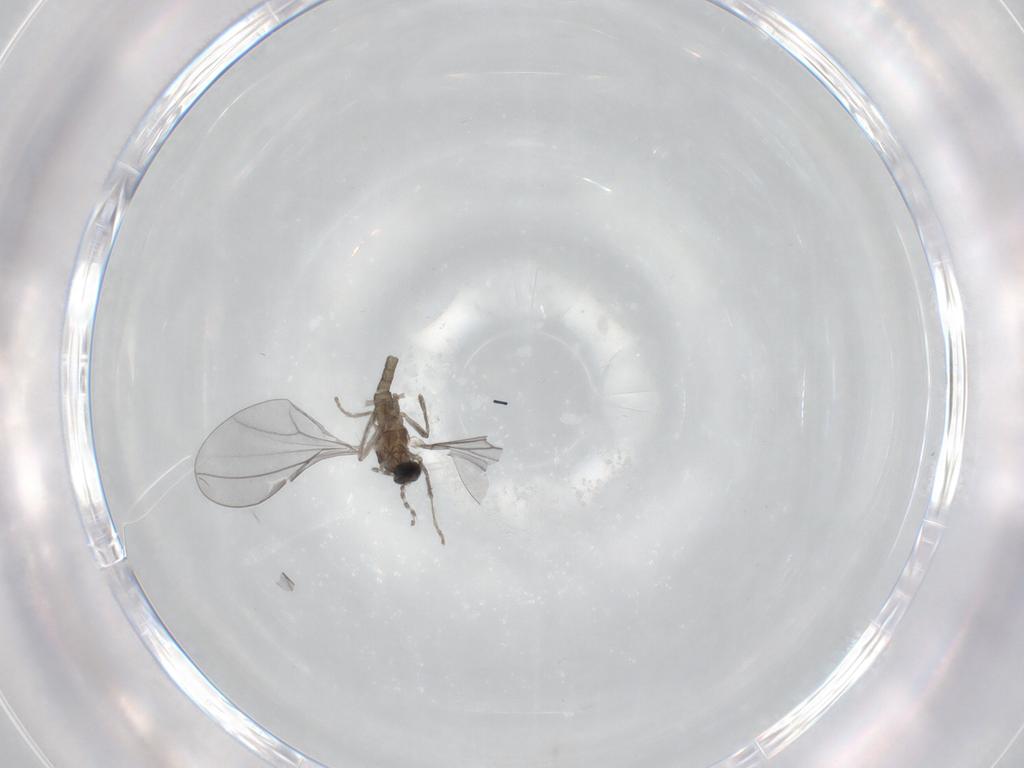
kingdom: Animalia
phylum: Arthropoda
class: Insecta
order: Diptera
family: Cecidomyiidae
